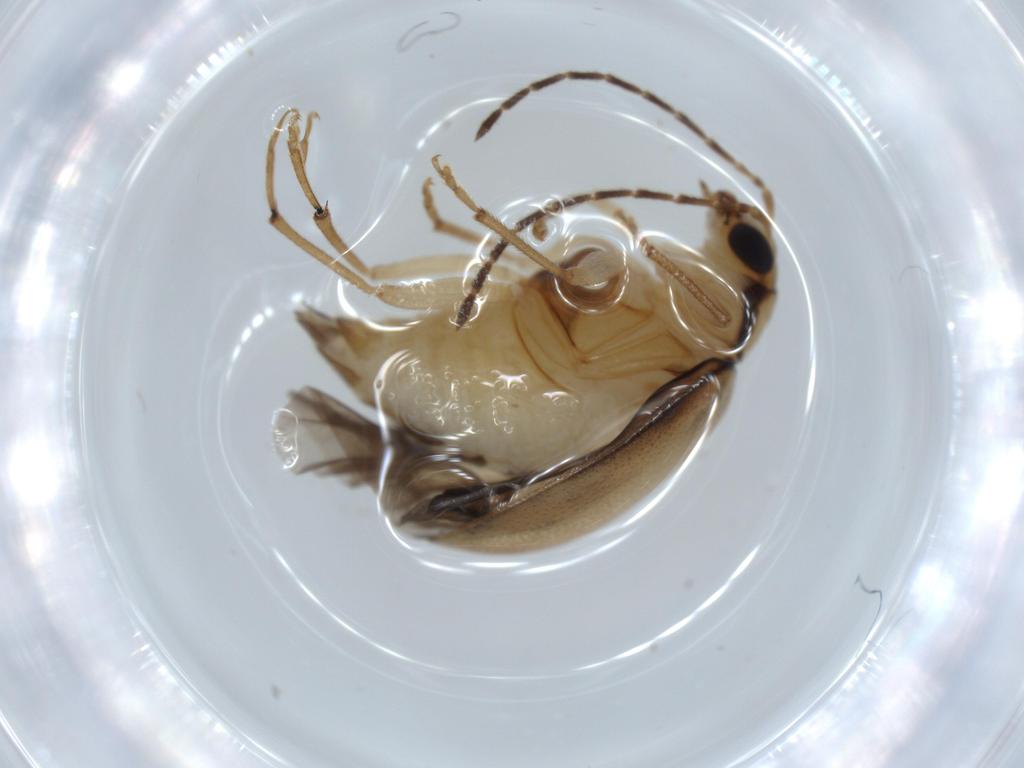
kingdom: Animalia
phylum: Arthropoda
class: Insecta
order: Coleoptera
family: Chrysomelidae
